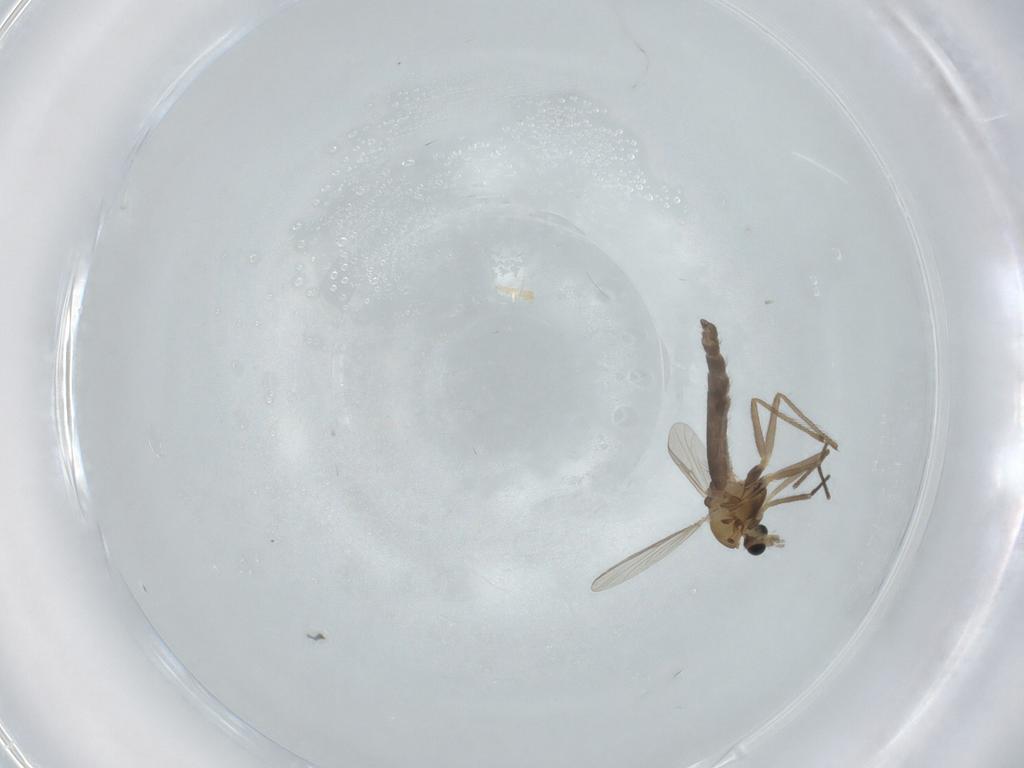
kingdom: Animalia
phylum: Arthropoda
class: Insecta
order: Diptera
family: Chironomidae
